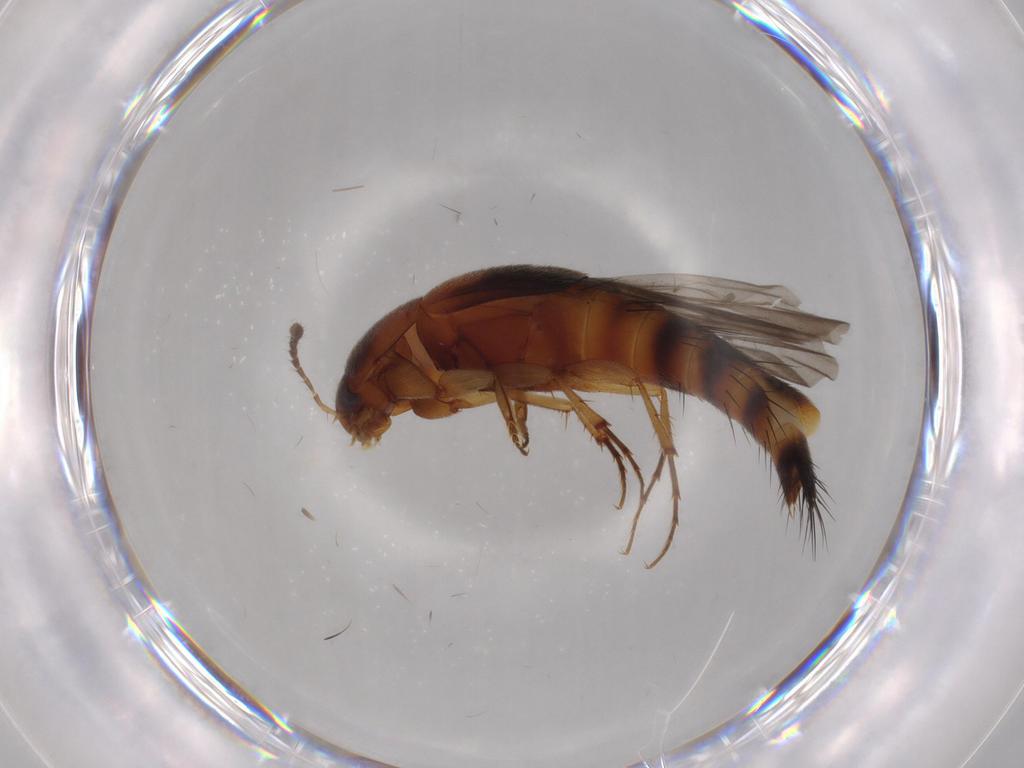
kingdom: Animalia
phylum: Arthropoda
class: Insecta
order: Coleoptera
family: Staphylinidae
